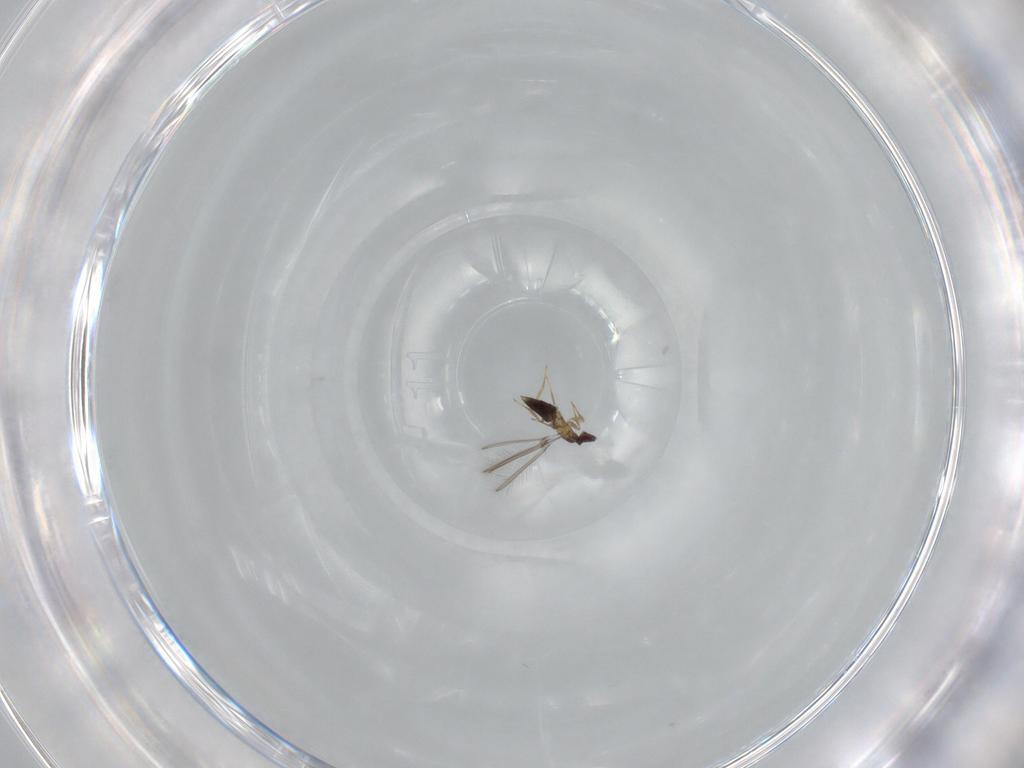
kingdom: Animalia
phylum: Arthropoda
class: Insecta
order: Hymenoptera
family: Mymaridae
